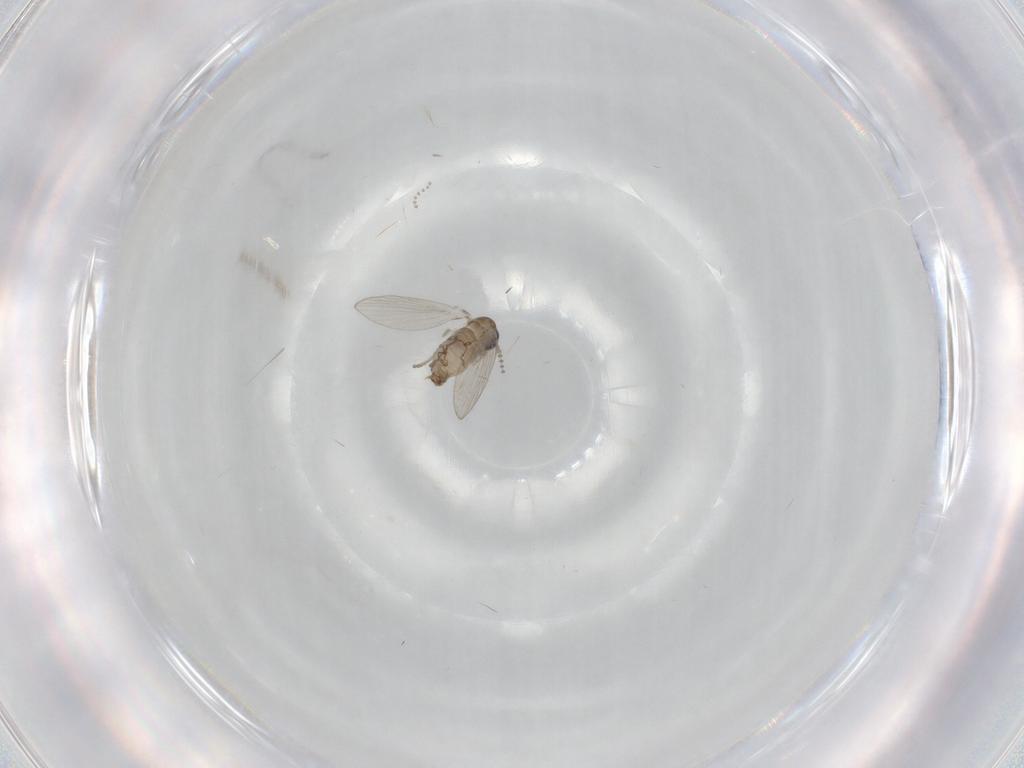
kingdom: Animalia
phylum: Arthropoda
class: Insecta
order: Diptera
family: Psychodidae
